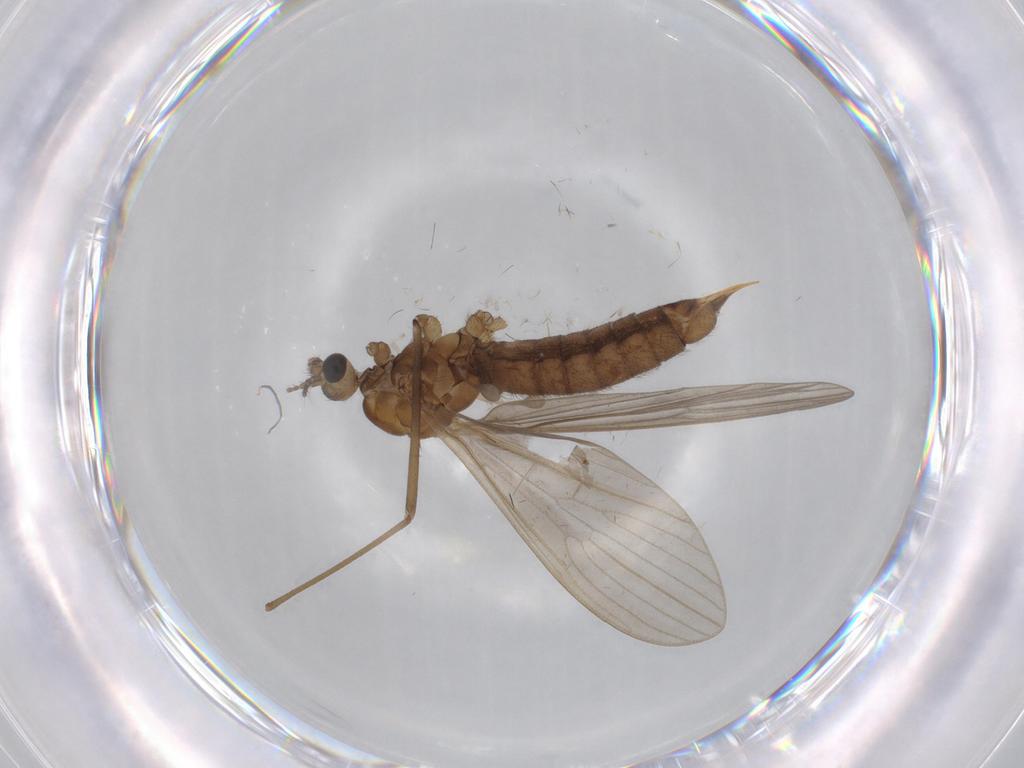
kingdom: Animalia
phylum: Arthropoda
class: Insecta
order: Diptera
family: Limoniidae
